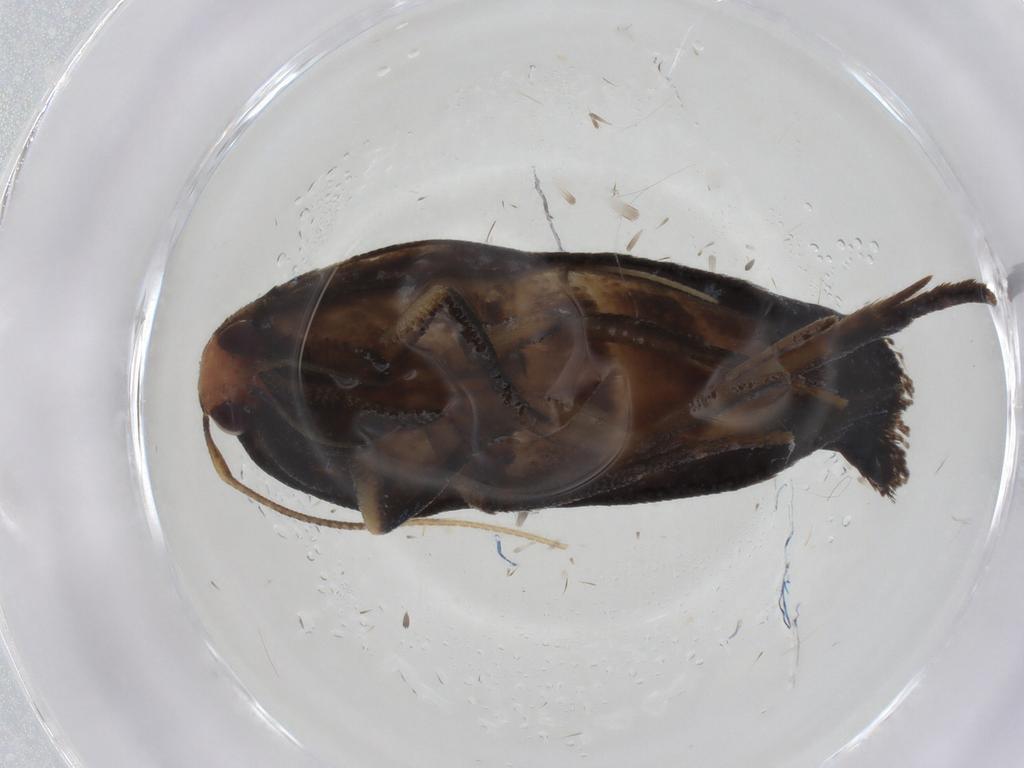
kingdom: Animalia
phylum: Arthropoda
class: Insecta
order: Lepidoptera
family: Oecophoridae
